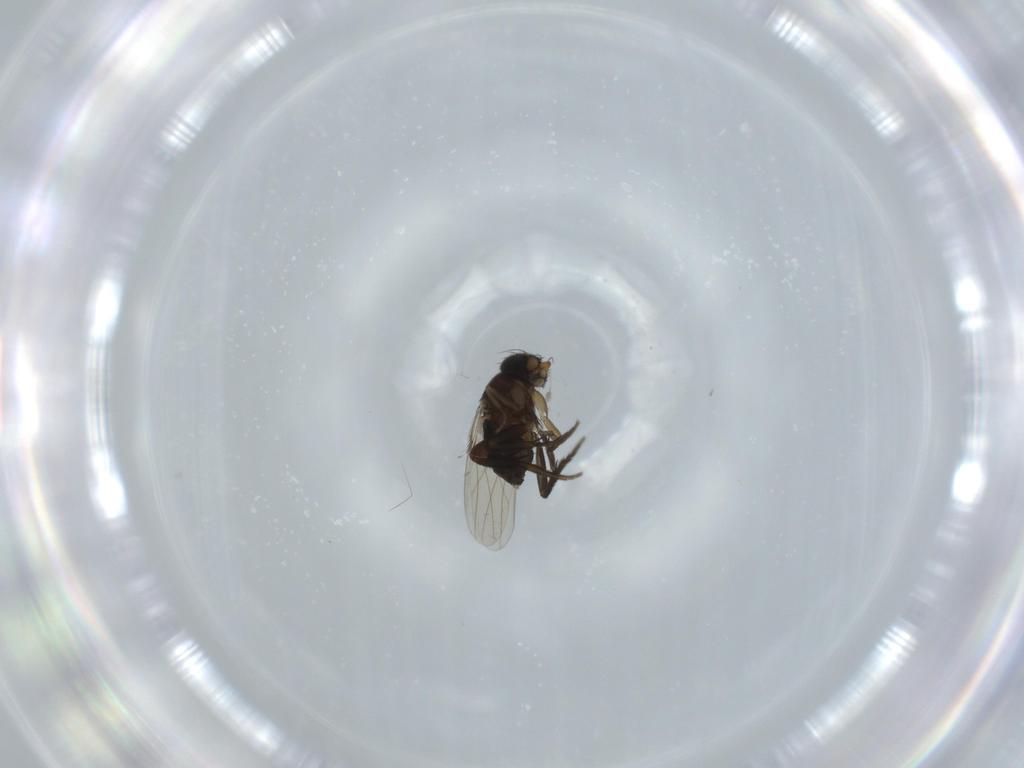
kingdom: Animalia
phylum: Arthropoda
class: Insecta
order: Diptera
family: Phoridae
